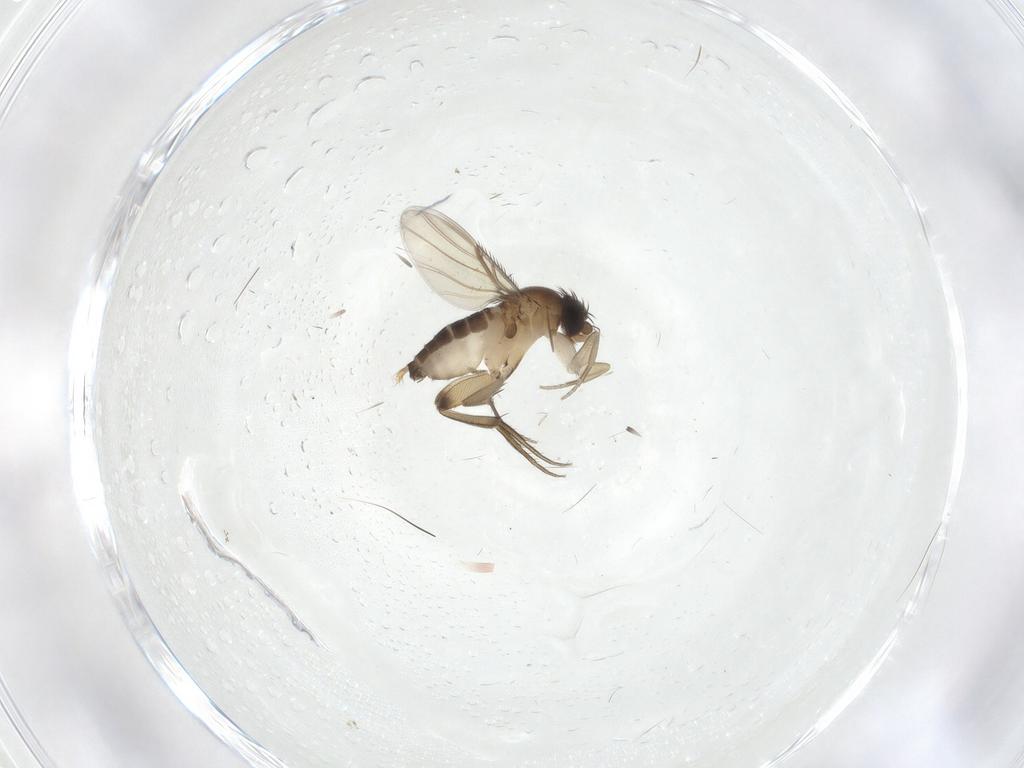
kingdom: Animalia
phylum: Arthropoda
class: Insecta
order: Diptera
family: Phoridae
